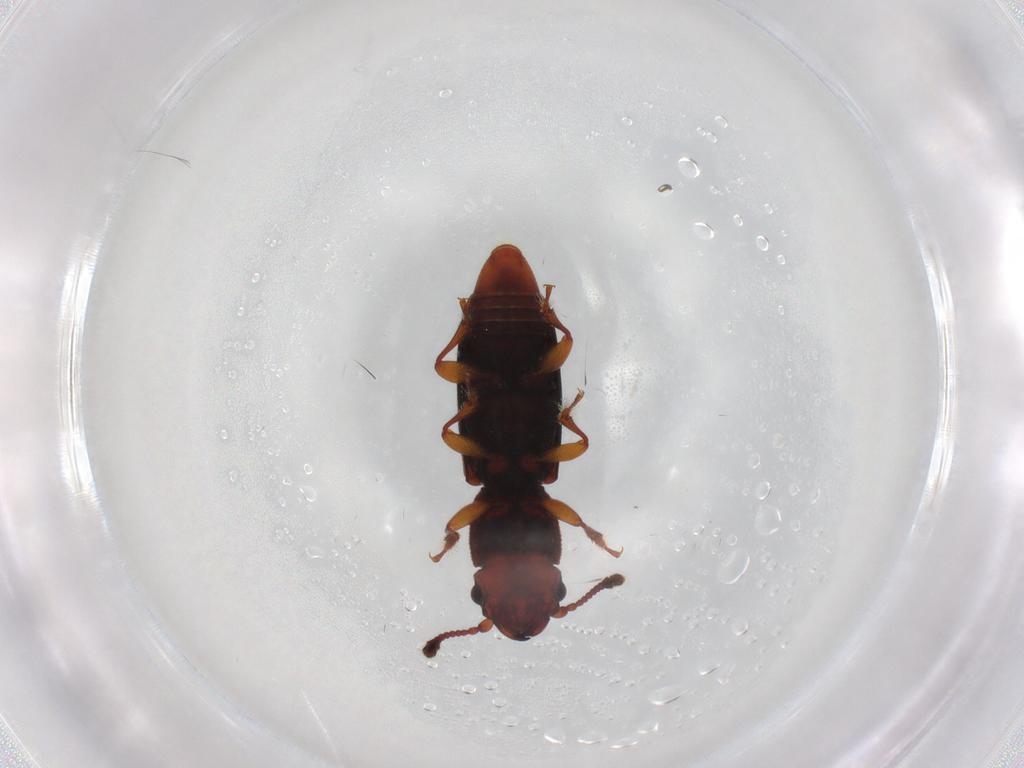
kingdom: Animalia
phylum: Arthropoda
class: Insecta
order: Coleoptera
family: Monotomidae
